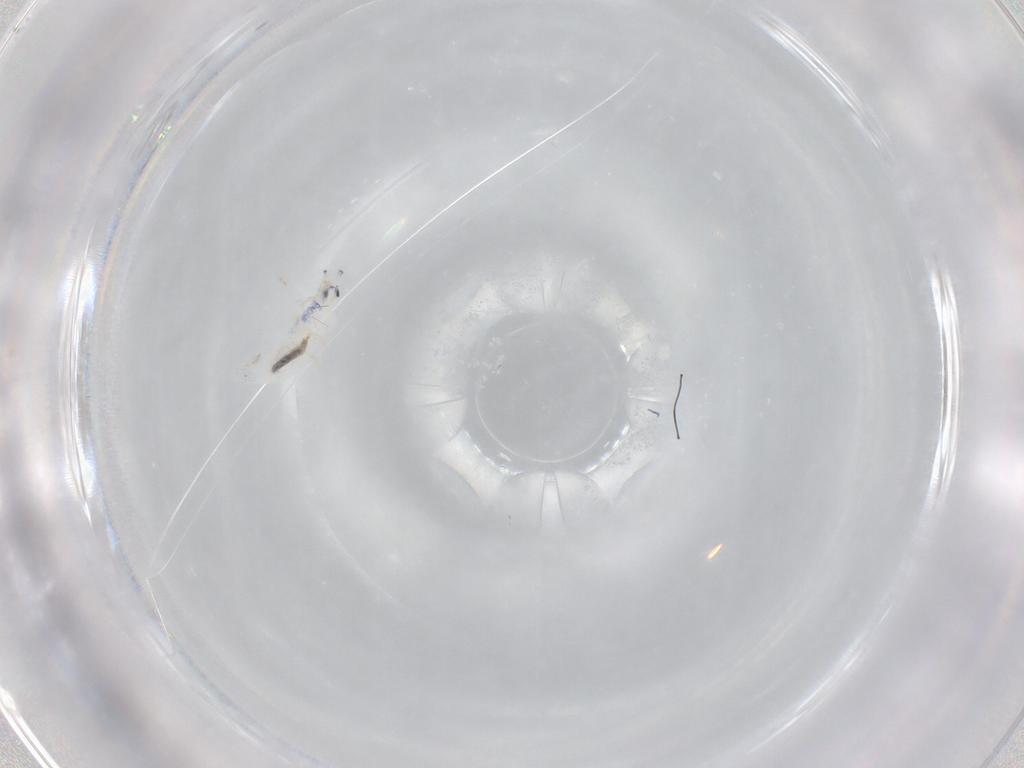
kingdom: Animalia
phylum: Arthropoda
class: Collembola
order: Entomobryomorpha
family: Entomobryidae
